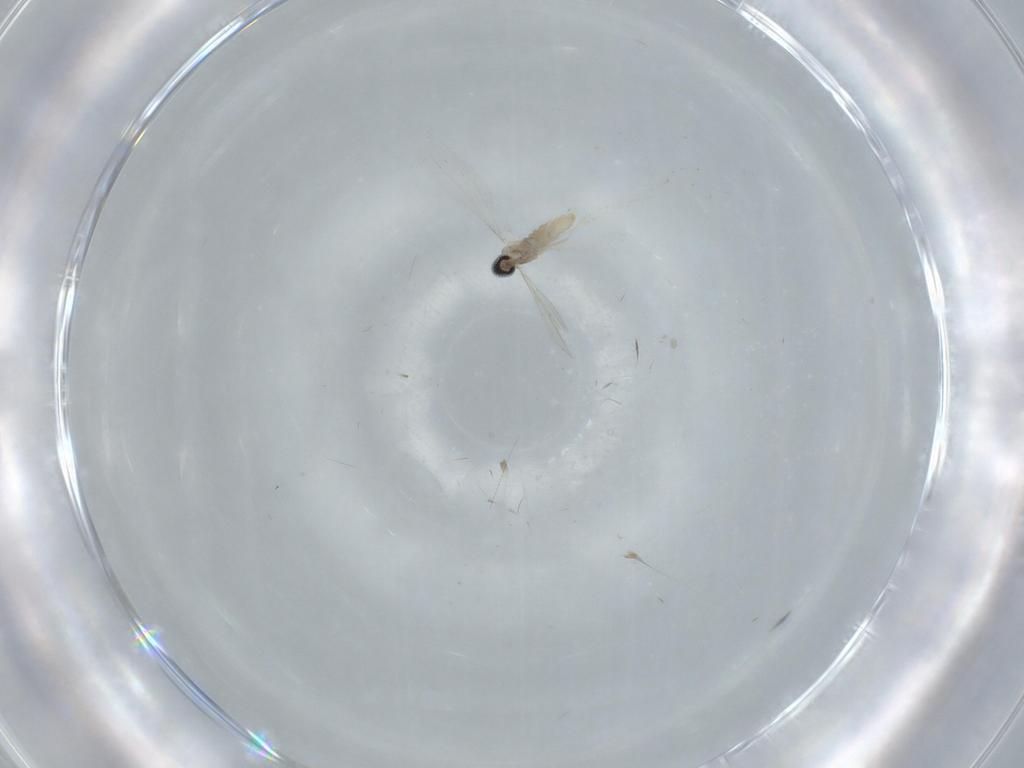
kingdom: Animalia
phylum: Arthropoda
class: Insecta
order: Diptera
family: Cecidomyiidae
